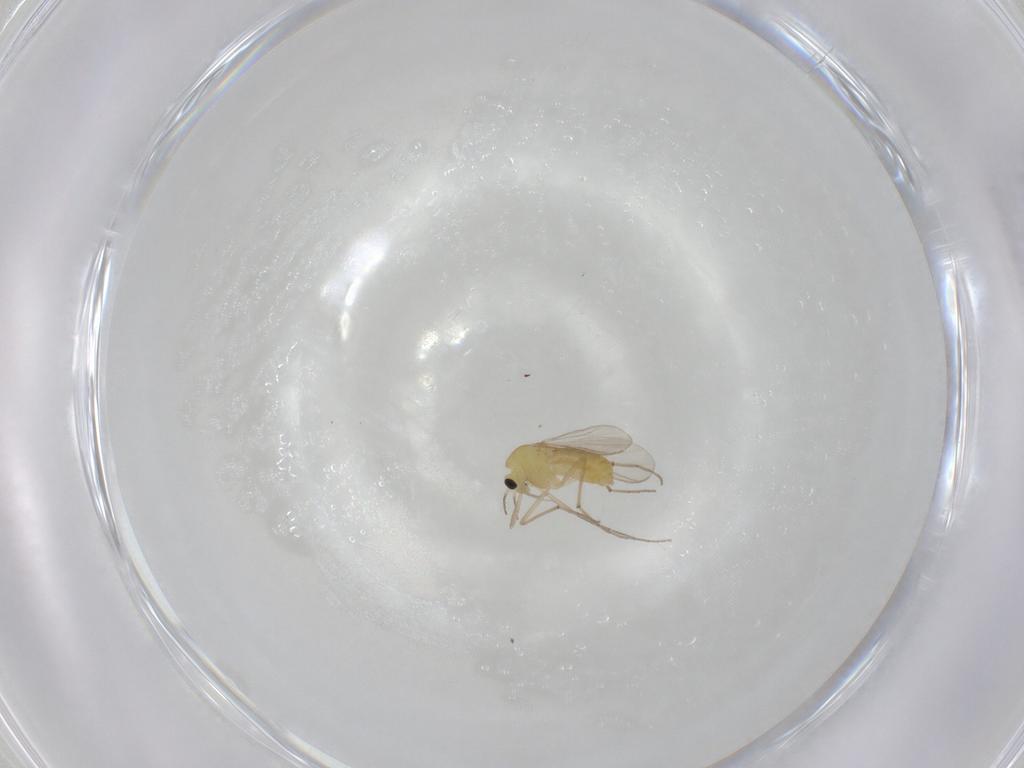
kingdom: Animalia
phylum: Arthropoda
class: Insecta
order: Diptera
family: Chironomidae
